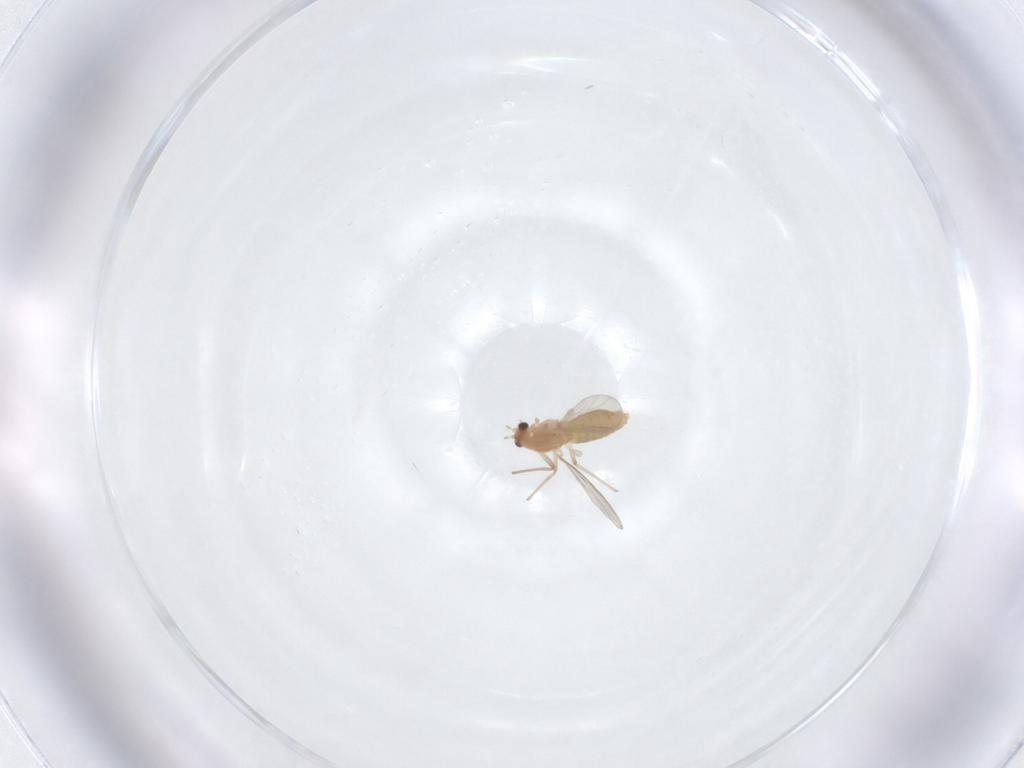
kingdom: Animalia
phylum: Arthropoda
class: Insecta
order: Diptera
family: Chironomidae
